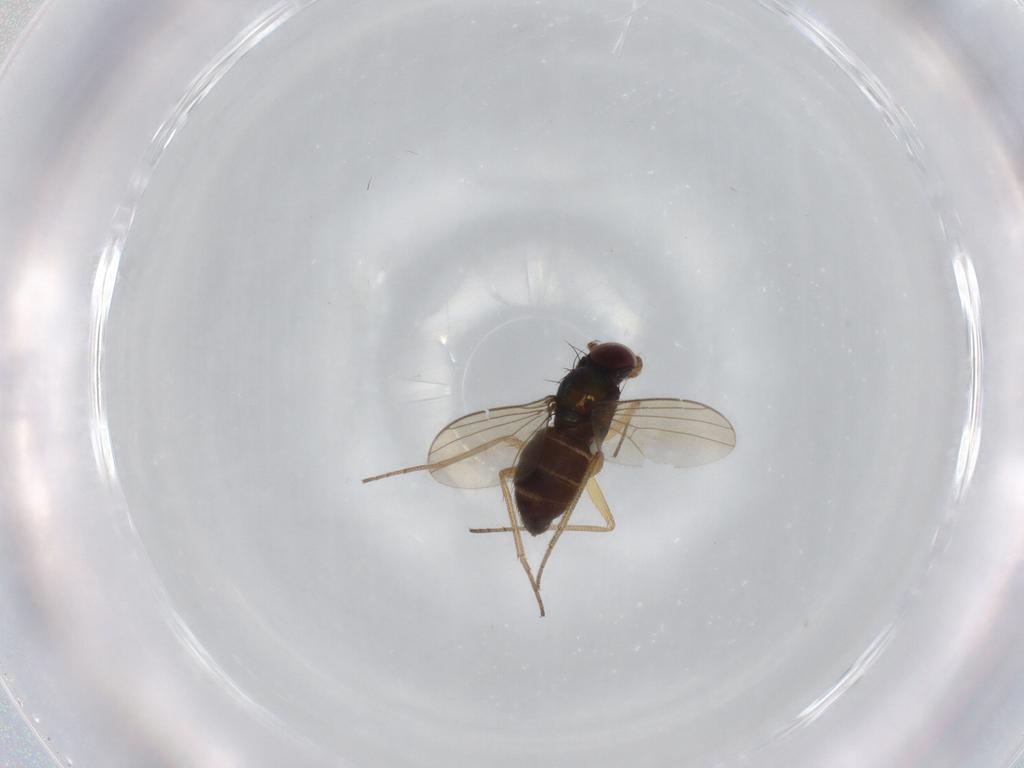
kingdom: Animalia
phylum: Arthropoda
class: Insecta
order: Diptera
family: Dolichopodidae
